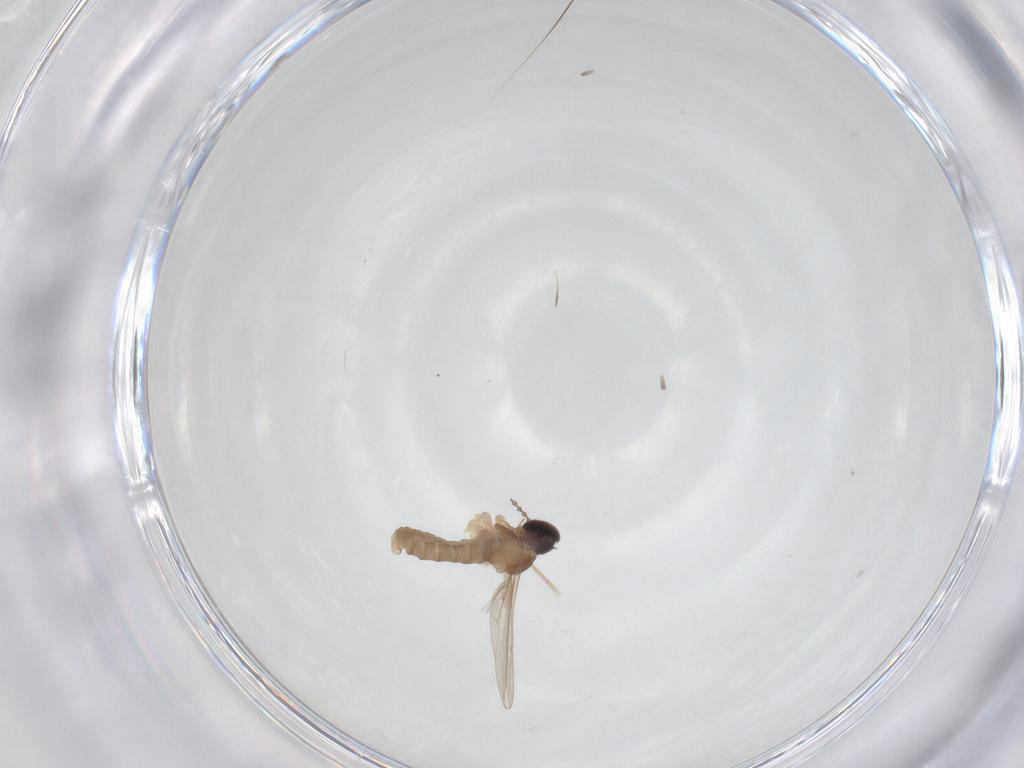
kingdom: Animalia
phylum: Arthropoda
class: Insecta
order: Diptera
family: Cecidomyiidae
